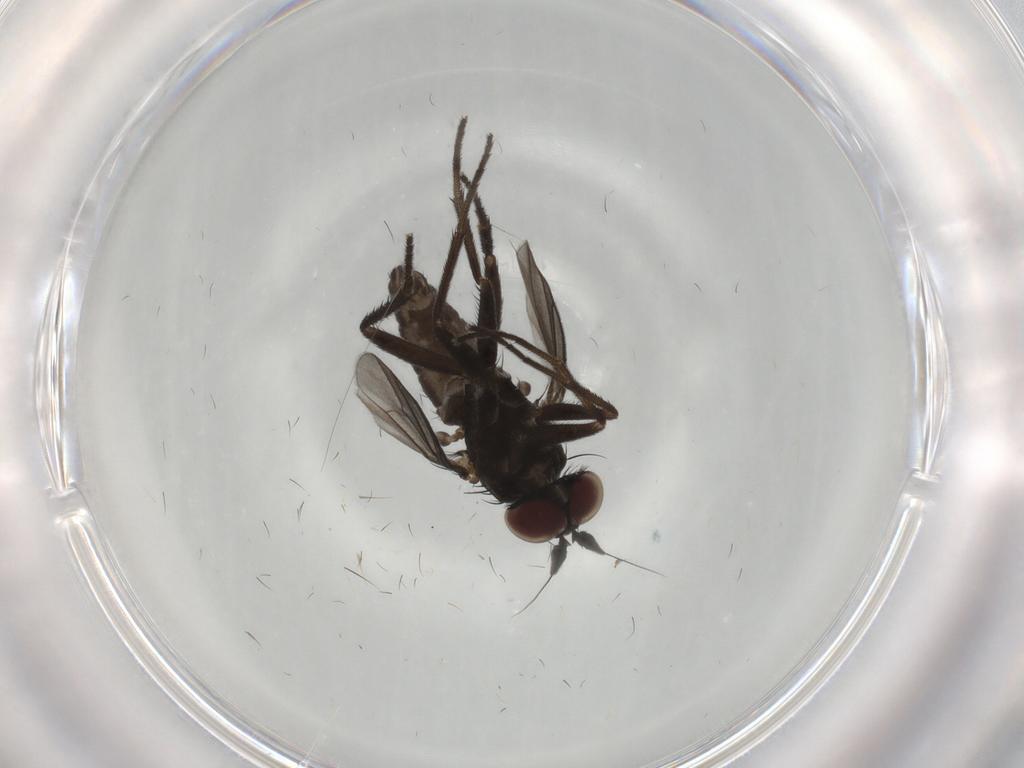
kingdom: Animalia
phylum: Arthropoda
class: Insecta
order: Diptera
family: Dolichopodidae
